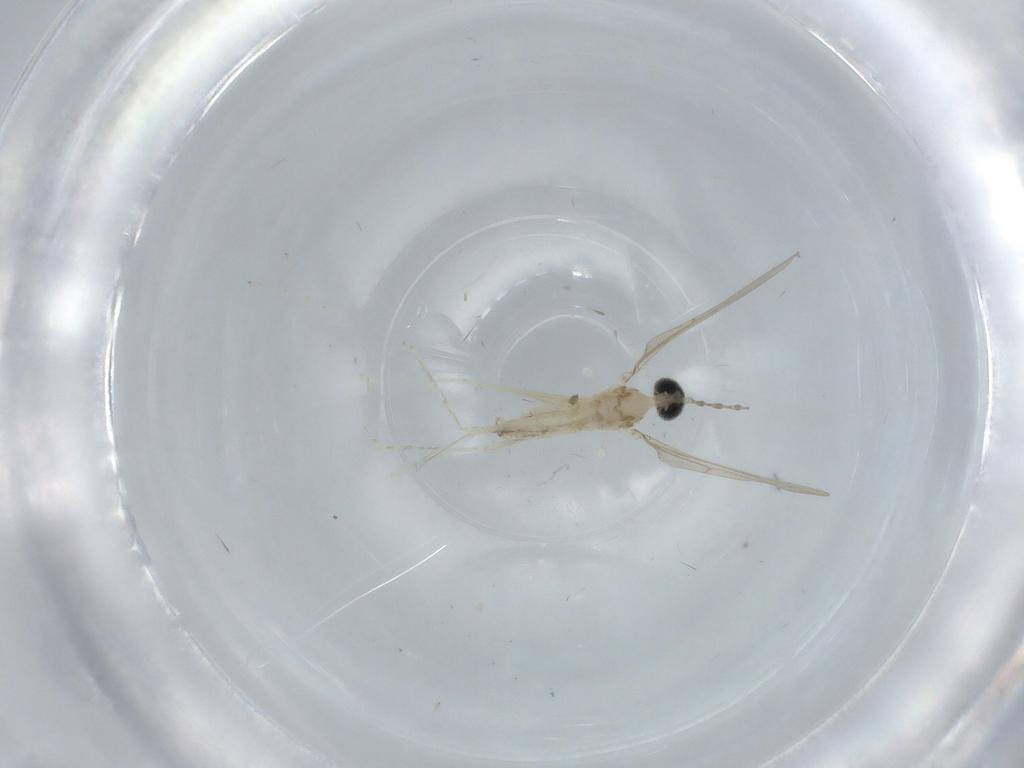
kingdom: Animalia
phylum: Arthropoda
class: Insecta
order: Diptera
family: Cecidomyiidae
